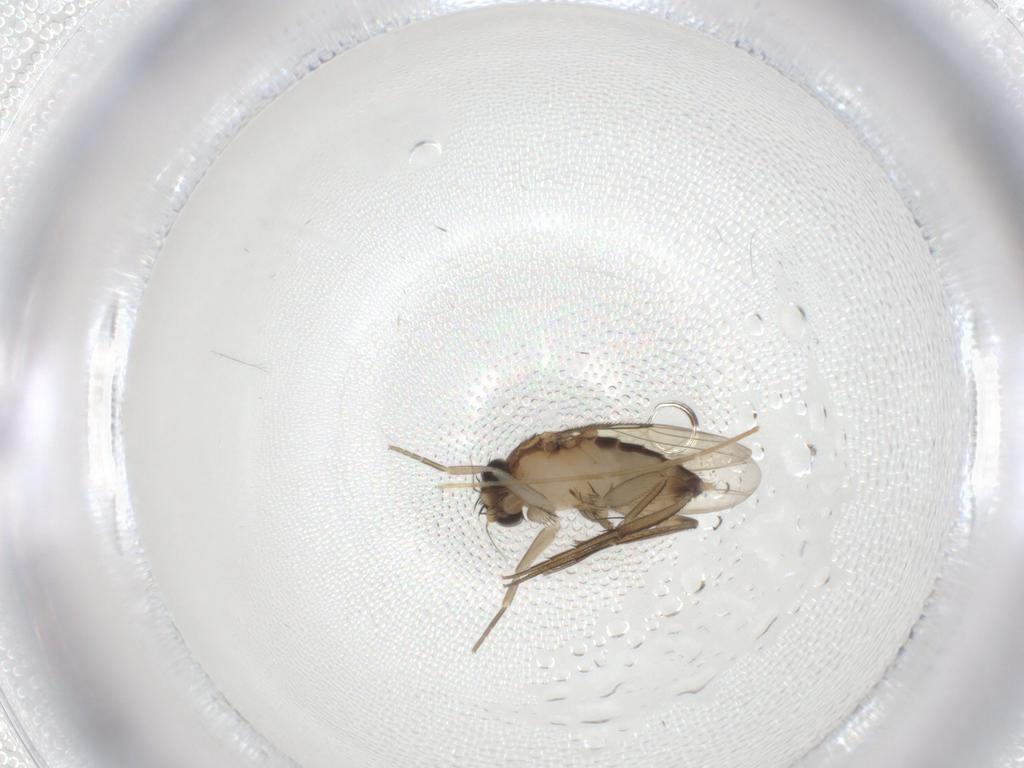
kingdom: Animalia
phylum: Arthropoda
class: Insecta
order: Diptera
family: Phoridae
